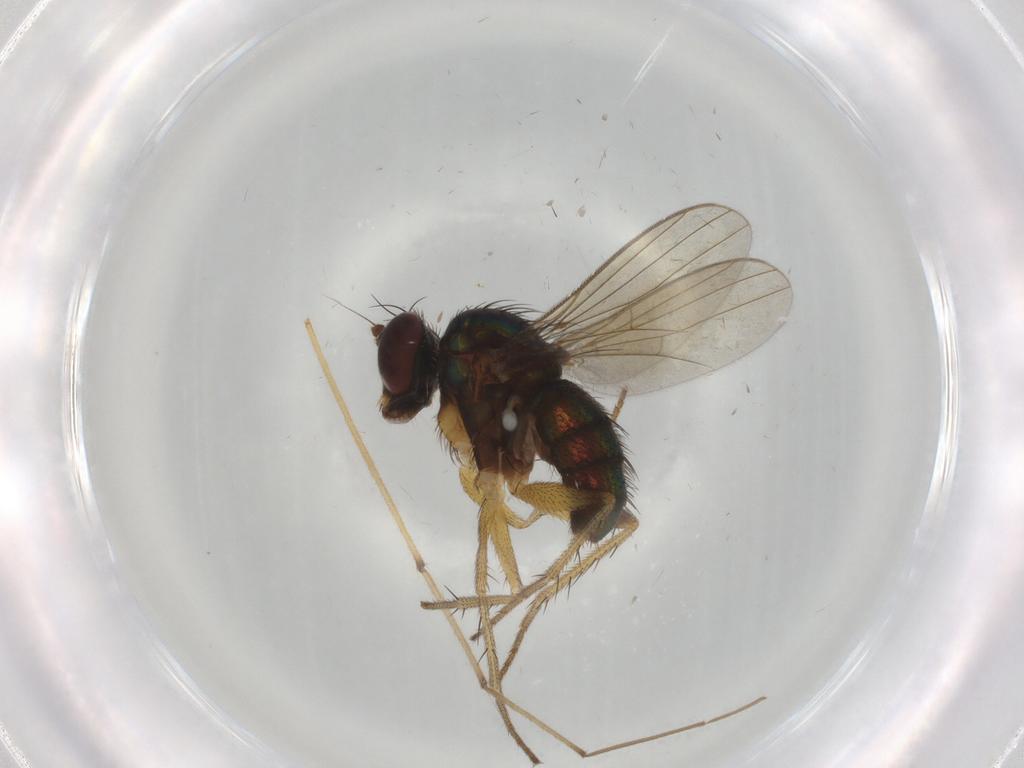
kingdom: Animalia
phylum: Arthropoda
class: Insecta
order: Diptera
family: Dolichopodidae
